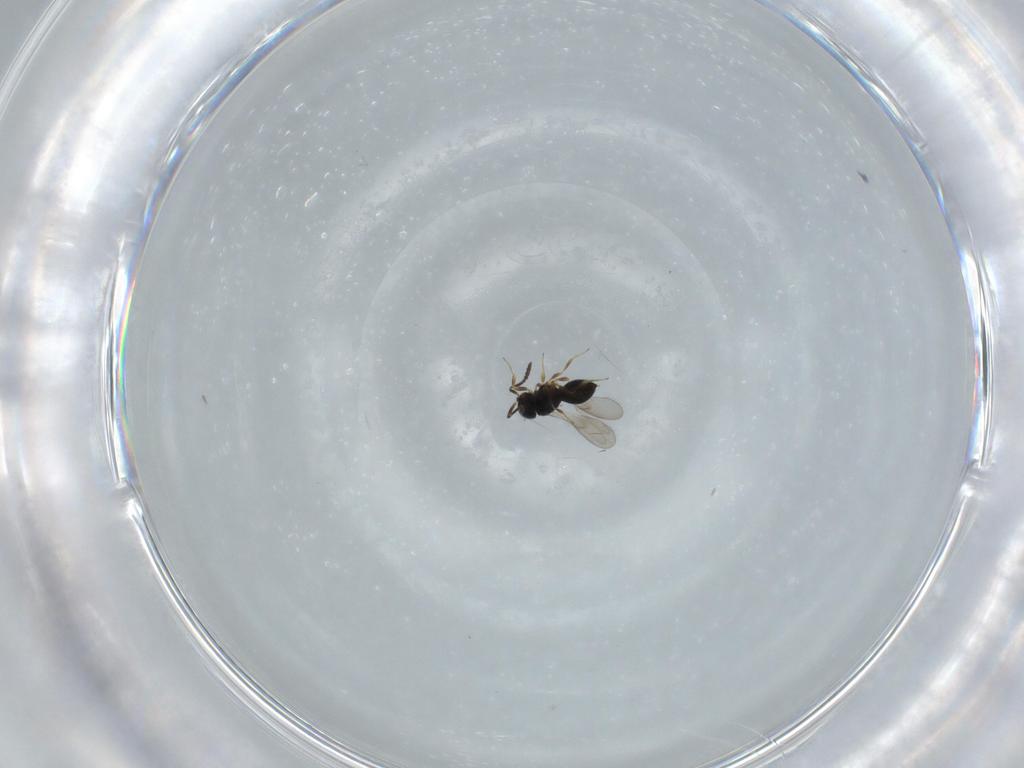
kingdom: Animalia
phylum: Arthropoda
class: Insecta
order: Hymenoptera
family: Scelionidae
